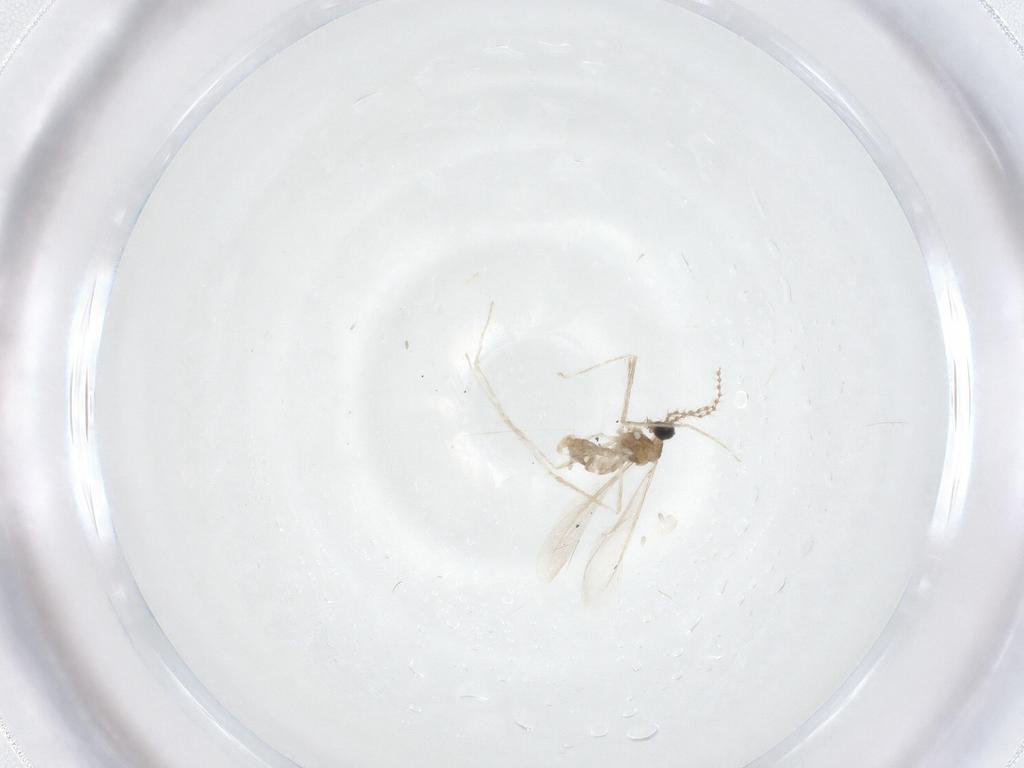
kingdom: Animalia
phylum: Arthropoda
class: Insecta
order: Diptera
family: Cecidomyiidae
